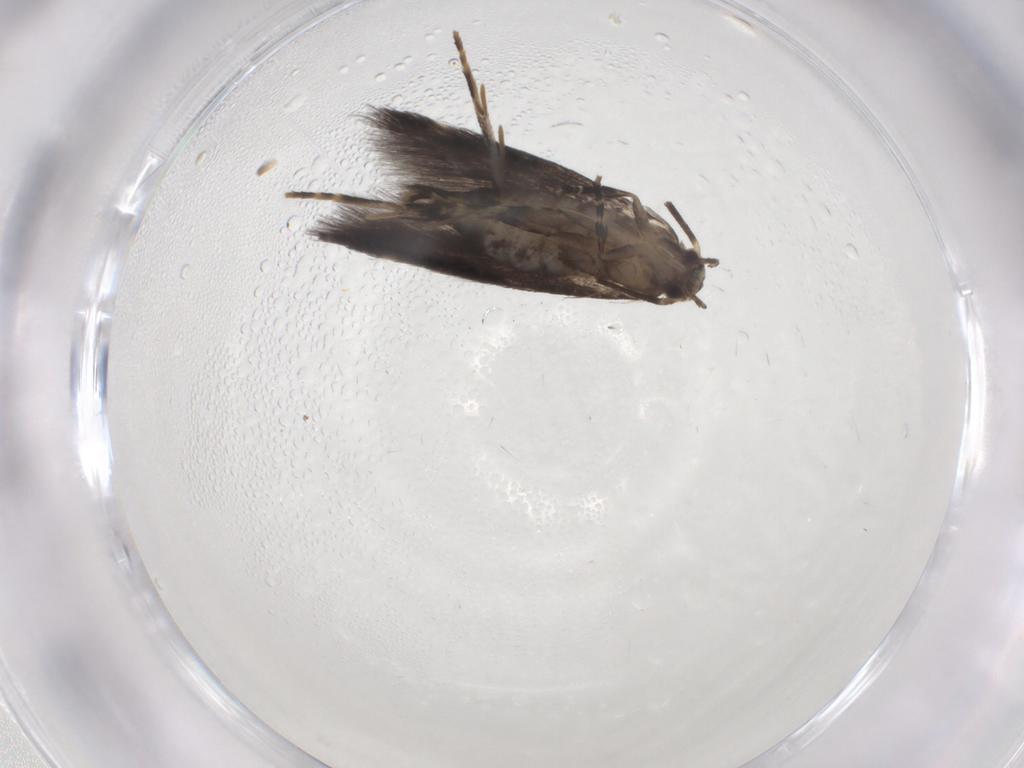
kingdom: Animalia
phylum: Arthropoda
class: Insecta
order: Lepidoptera
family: Elachistidae
